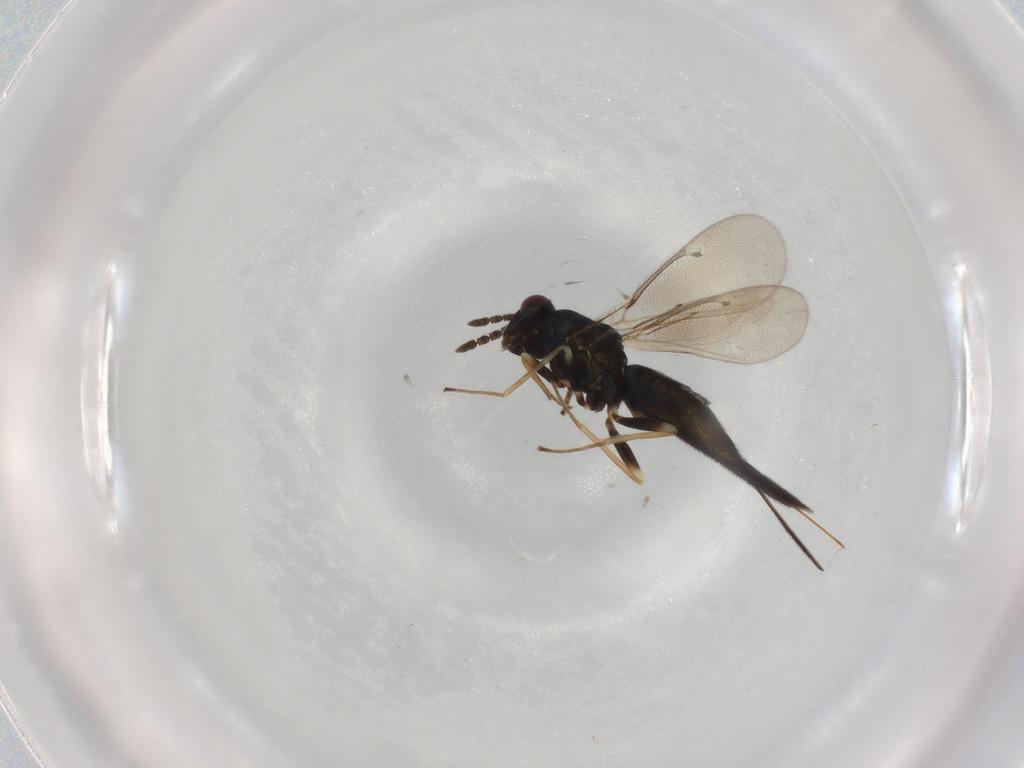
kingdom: Animalia
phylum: Arthropoda
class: Insecta
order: Hymenoptera
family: Eulophidae
